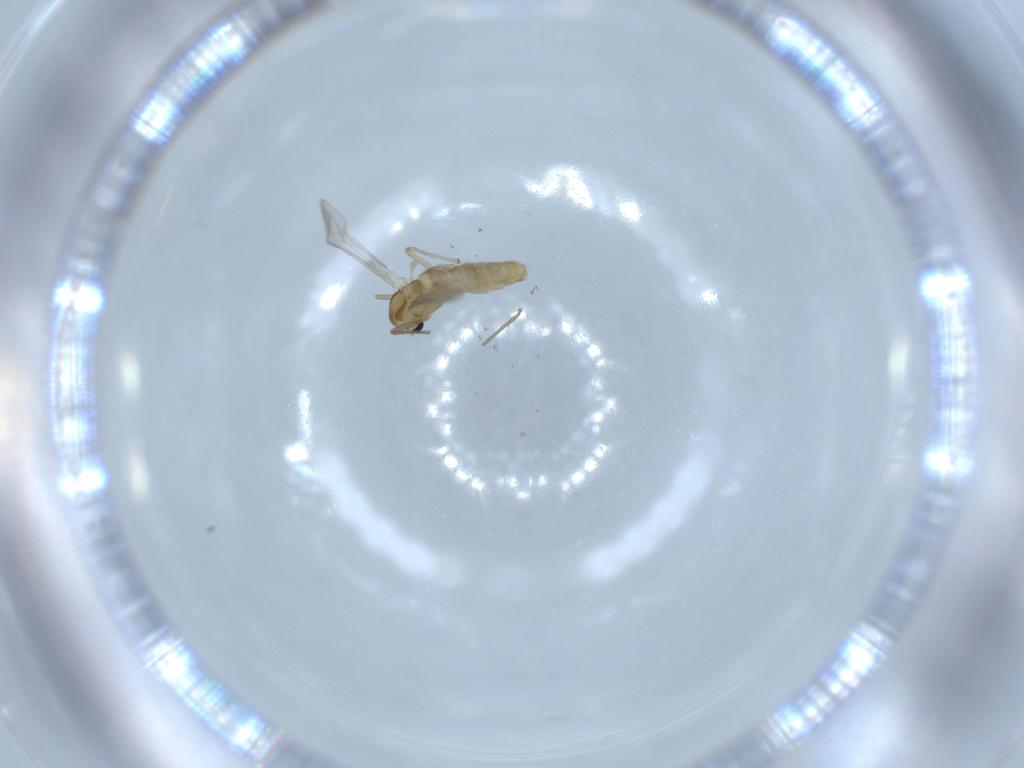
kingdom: Animalia
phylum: Arthropoda
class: Insecta
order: Diptera
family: Chironomidae
